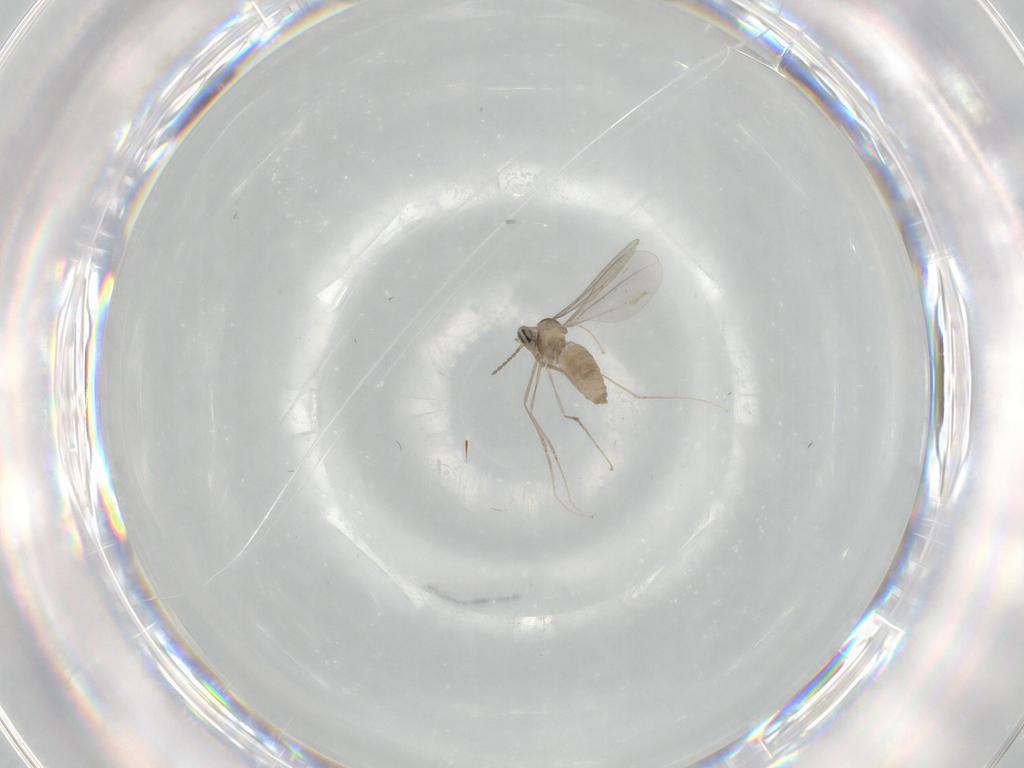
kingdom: Animalia
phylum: Arthropoda
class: Insecta
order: Diptera
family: Cecidomyiidae
